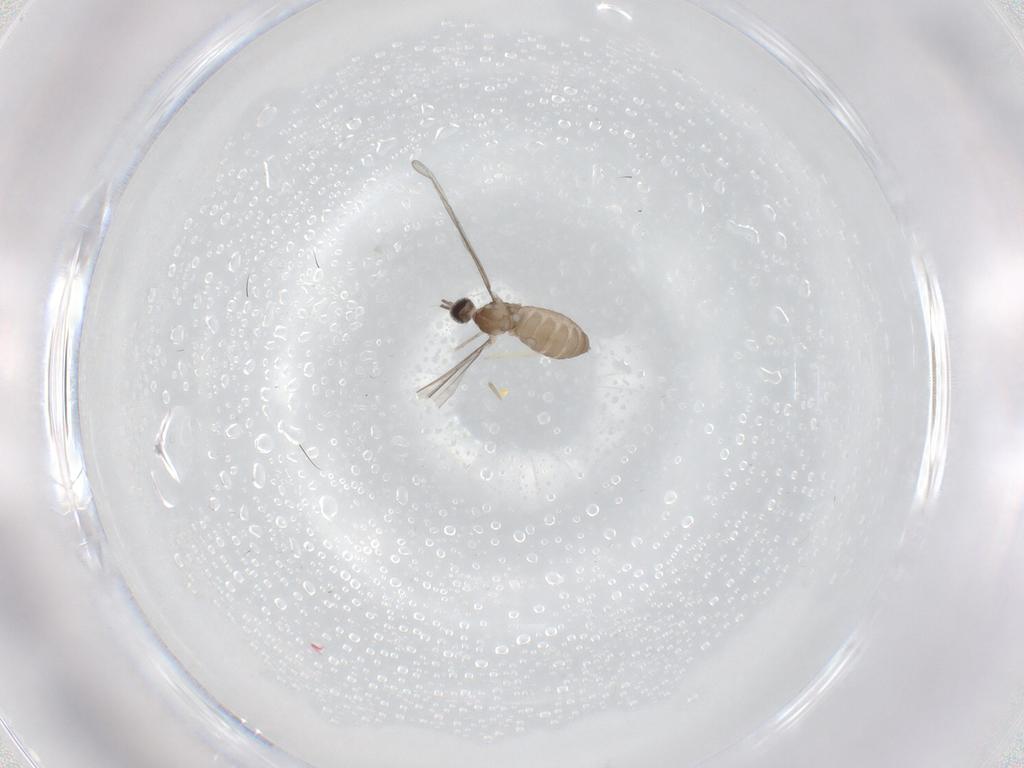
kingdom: Animalia
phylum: Arthropoda
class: Insecta
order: Diptera
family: Cecidomyiidae
